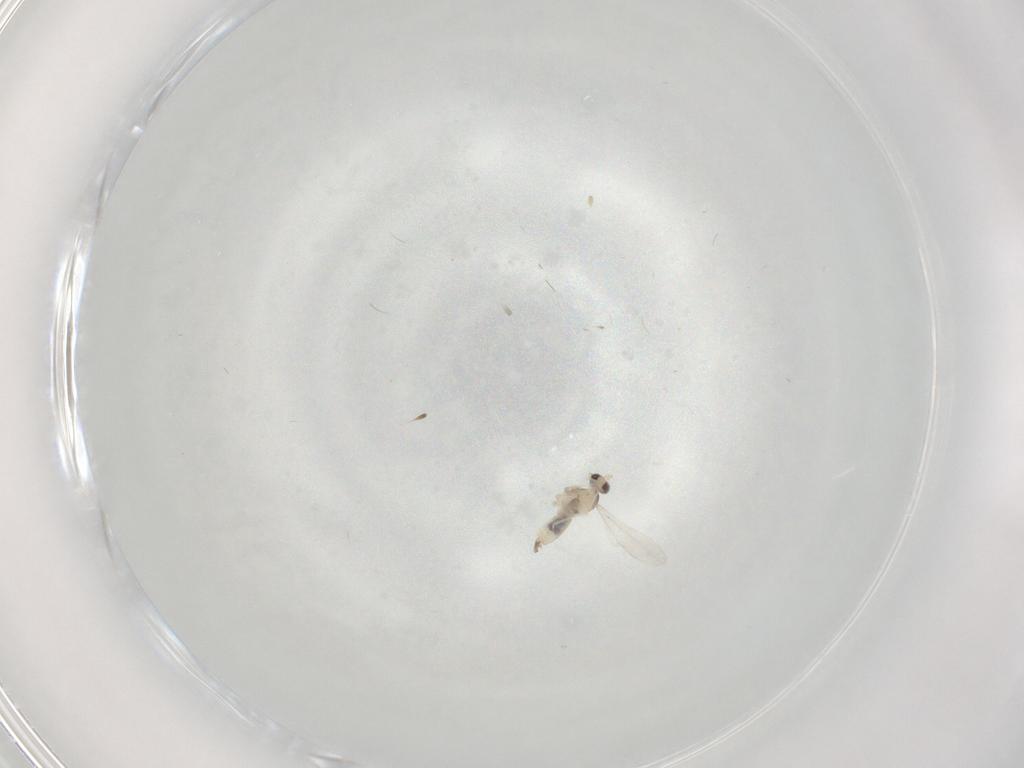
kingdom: Animalia
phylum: Arthropoda
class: Insecta
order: Diptera
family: Cecidomyiidae
